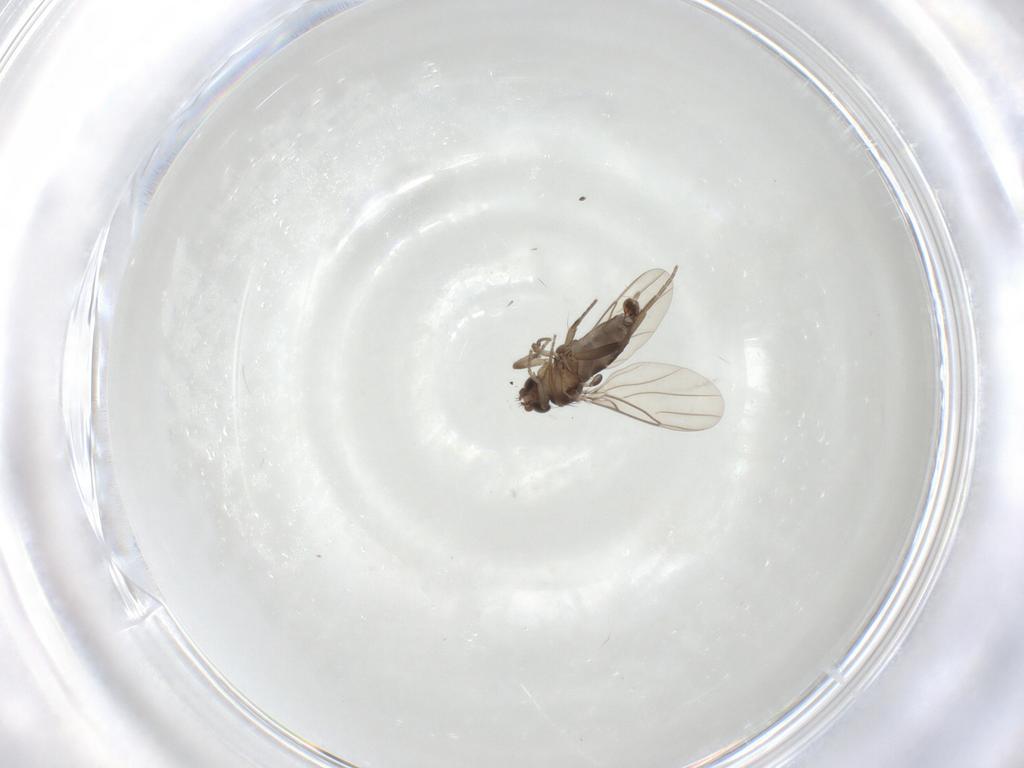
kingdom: Animalia
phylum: Arthropoda
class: Insecta
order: Diptera
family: Phoridae
